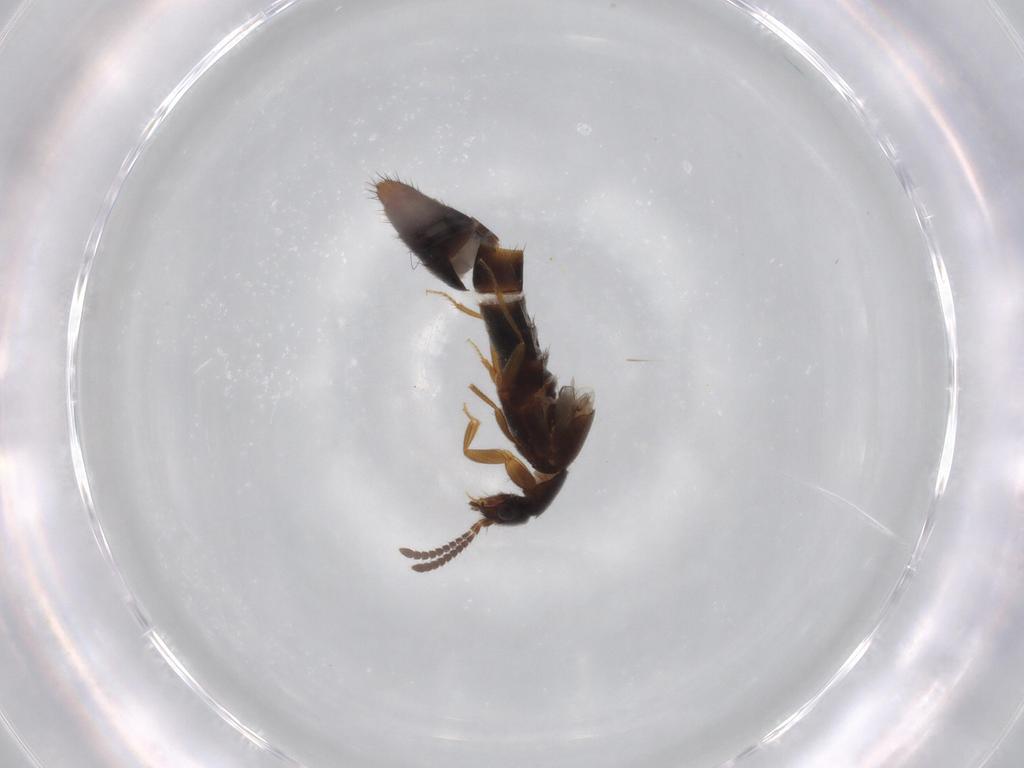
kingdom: Animalia
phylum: Arthropoda
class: Insecta
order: Coleoptera
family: Staphylinidae
